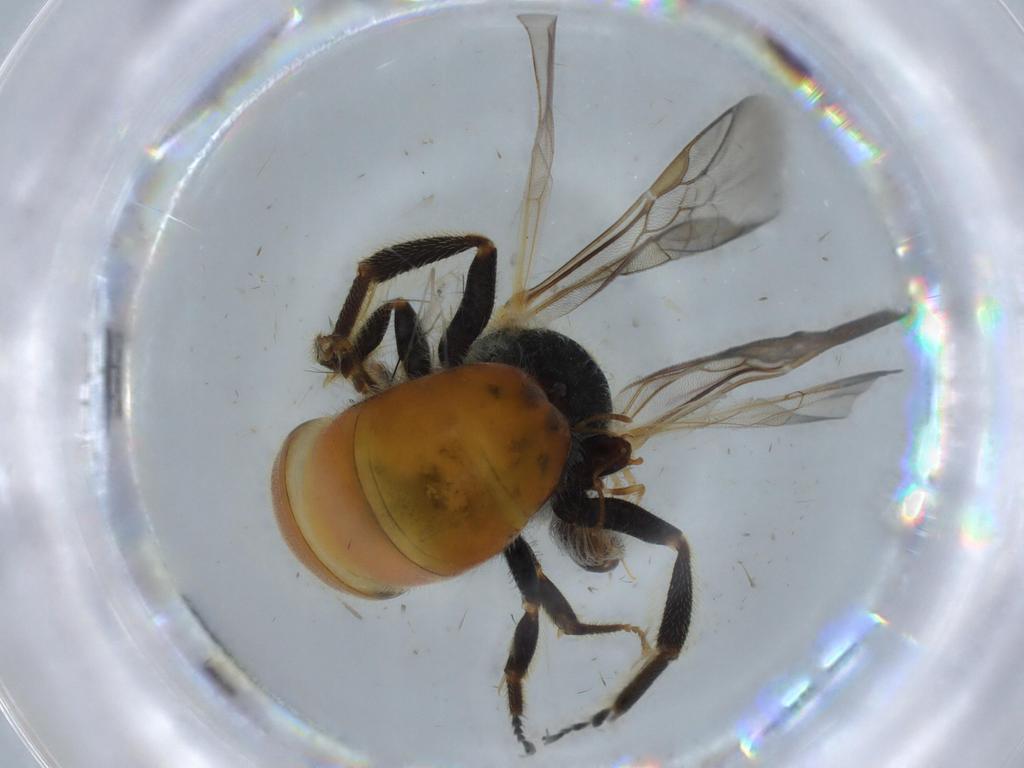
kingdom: Animalia
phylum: Arthropoda
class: Insecta
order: Hymenoptera
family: Formicidae
